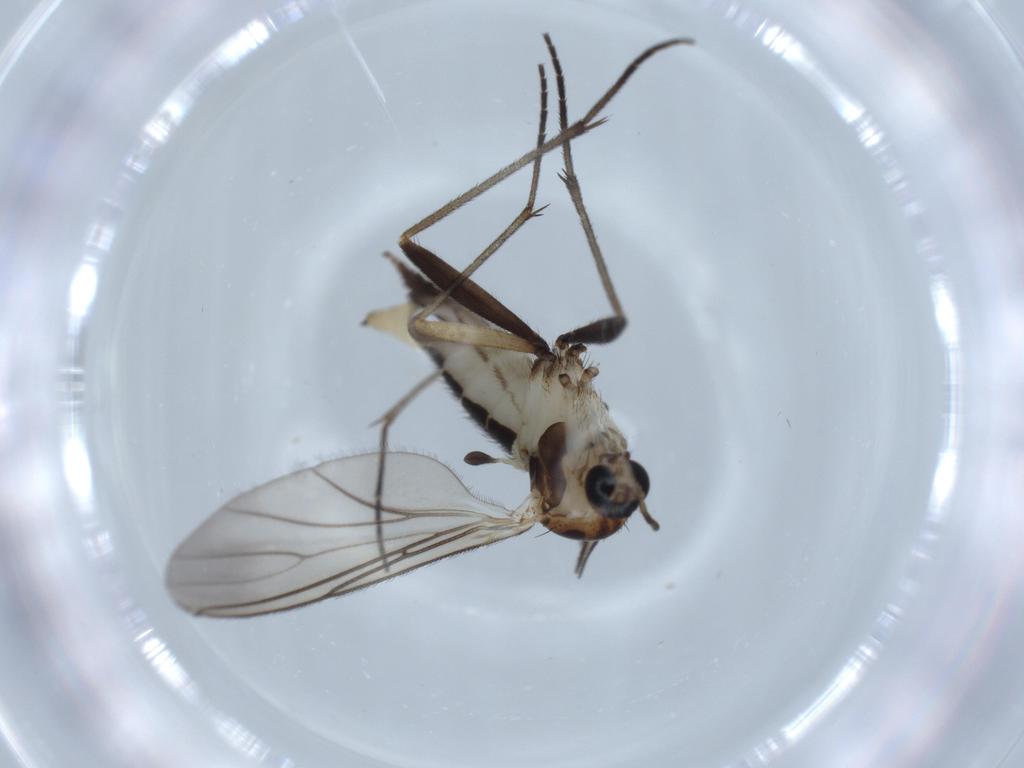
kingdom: Animalia
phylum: Arthropoda
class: Insecta
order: Diptera
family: Sciaridae
